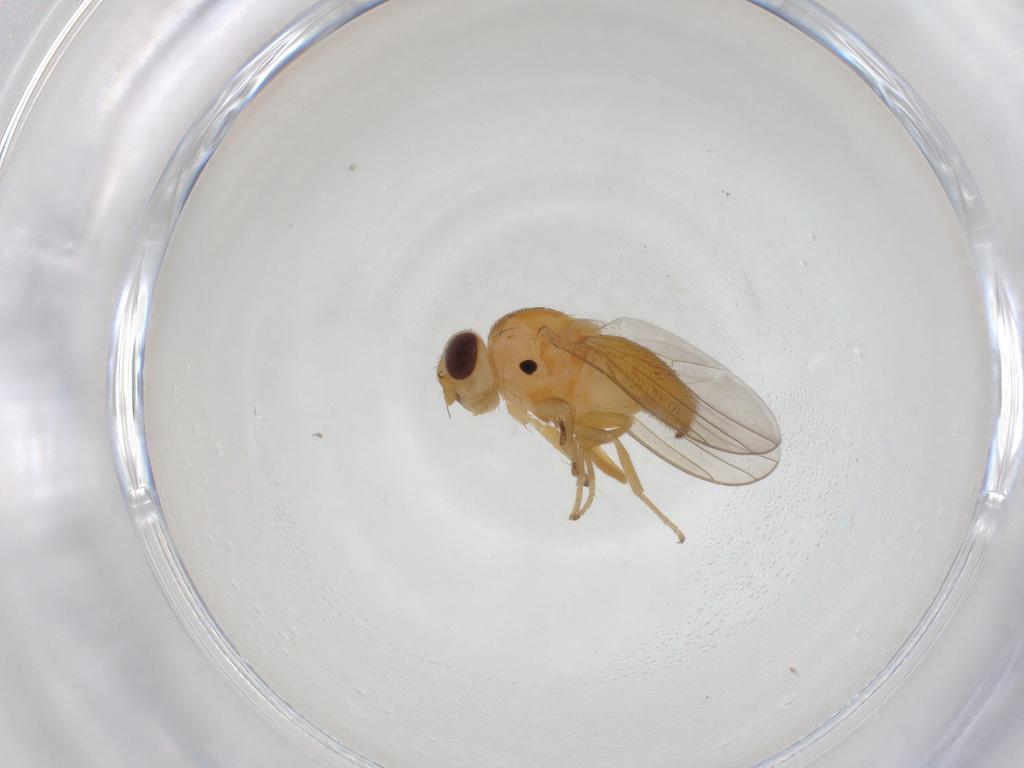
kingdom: Animalia
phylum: Arthropoda
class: Insecta
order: Diptera
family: Chloropidae
